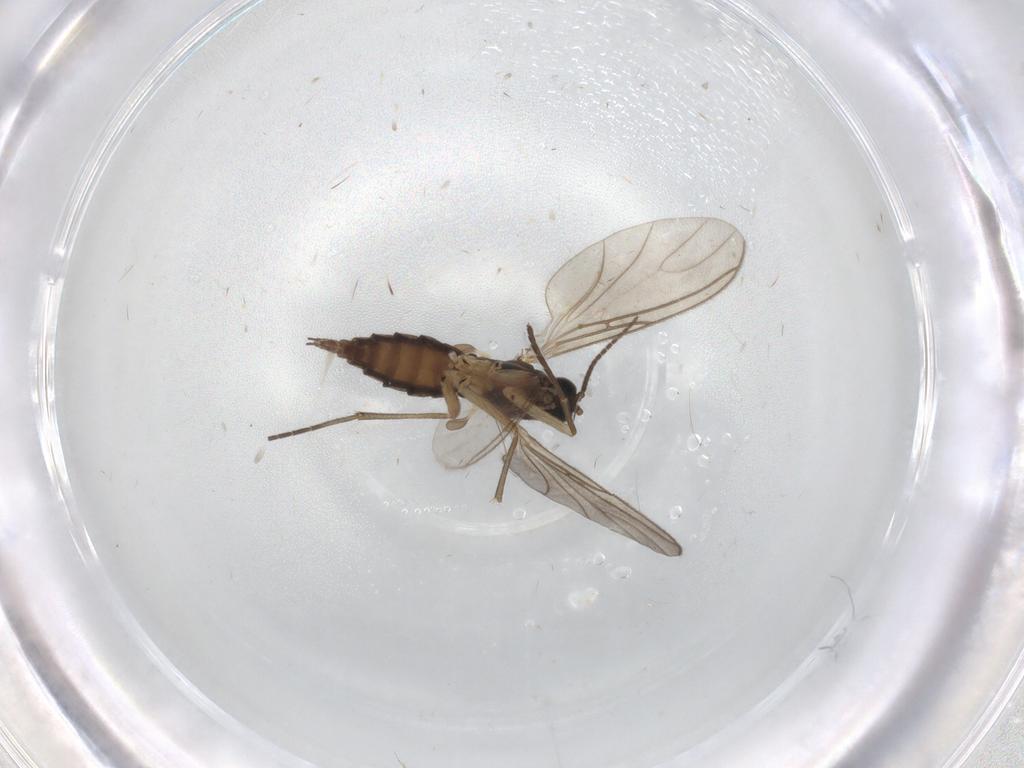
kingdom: Animalia
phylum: Arthropoda
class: Insecta
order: Diptera
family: Sciaridae
